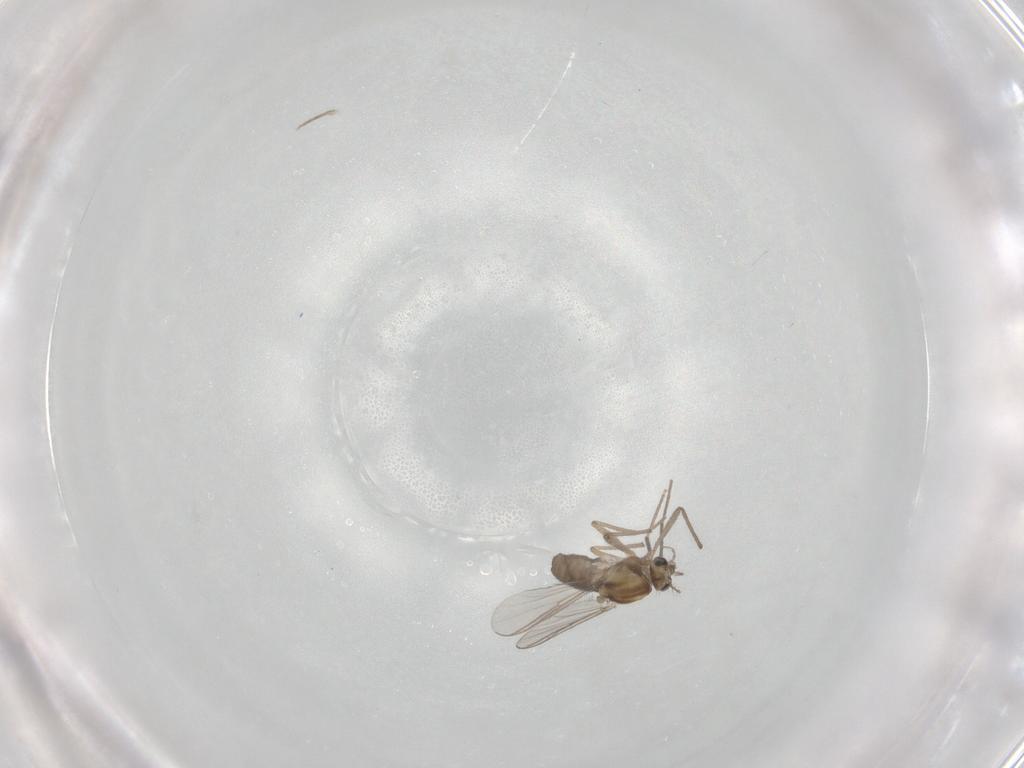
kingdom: Animalia
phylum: Arthropoda
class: Insecta
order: Diptera
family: Chironomidae
